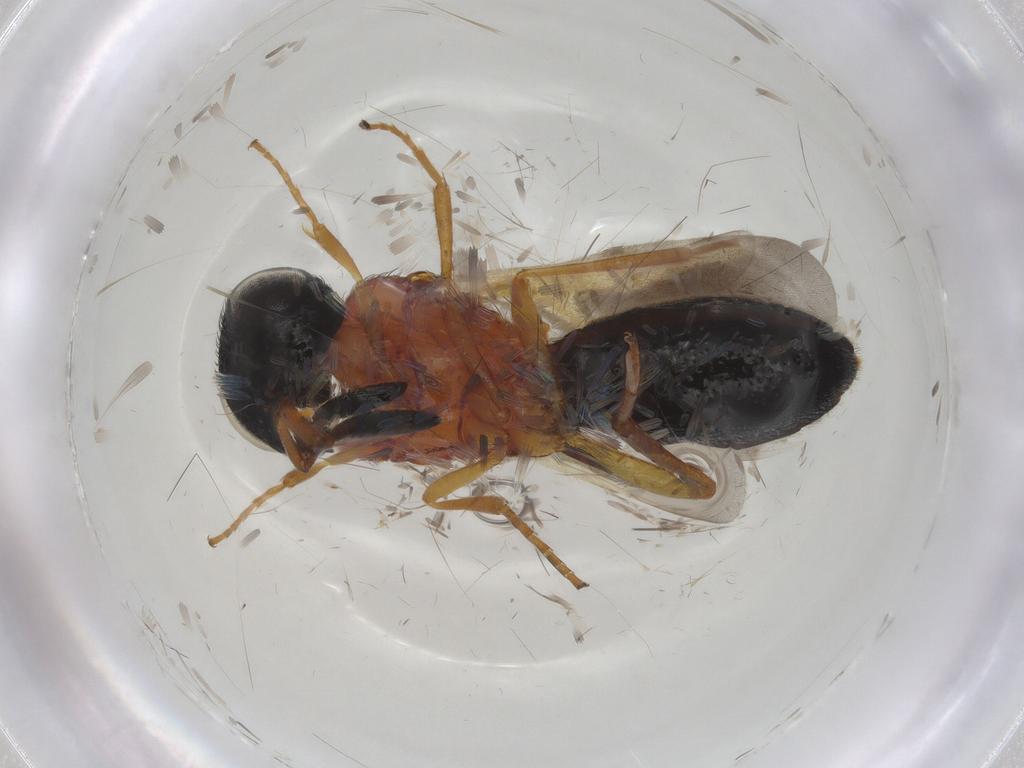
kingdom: Animalia
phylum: Arthropoda
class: Insecta
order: Hymenoptera
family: Scelionidae
